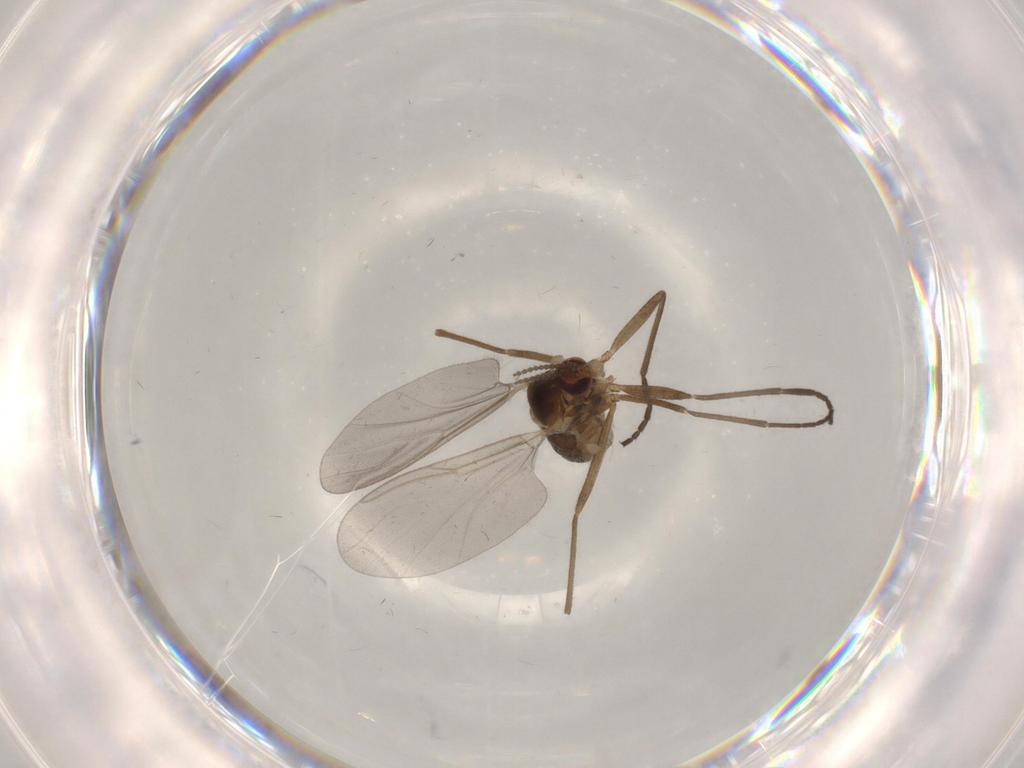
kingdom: Animalia
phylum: Arthropoda
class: Insecta
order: Diptera
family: Cecidomyiidae
